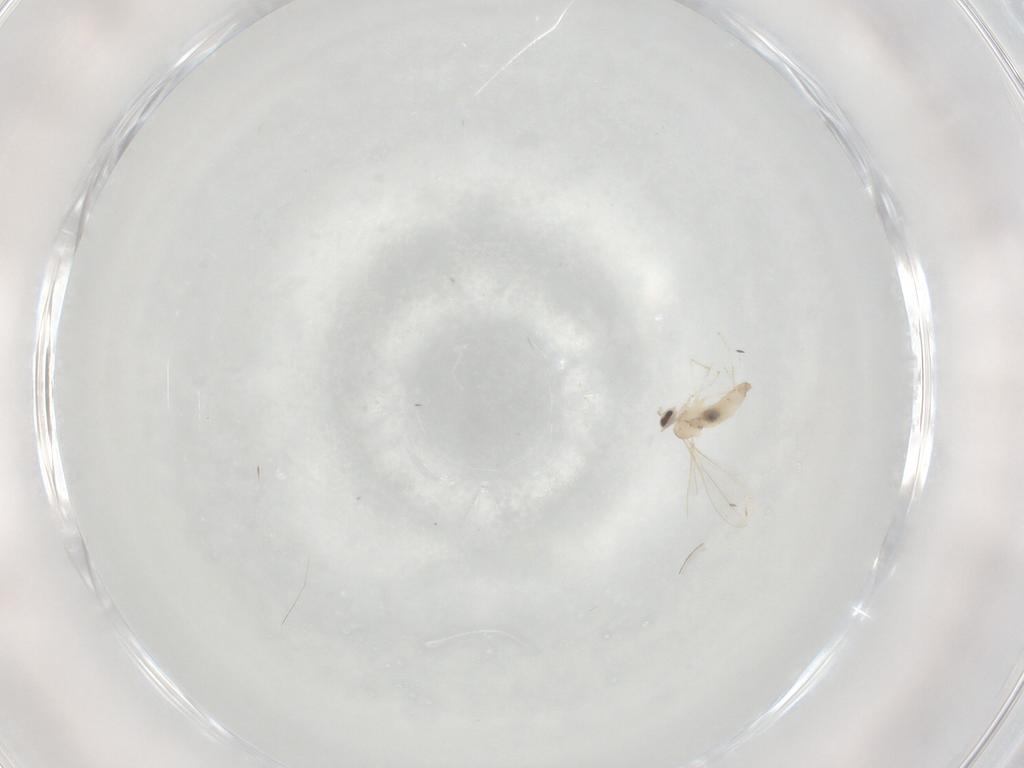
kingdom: Animalia
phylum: Arthropoda
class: Insecta
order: Diptera
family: Cecidomyiidae
